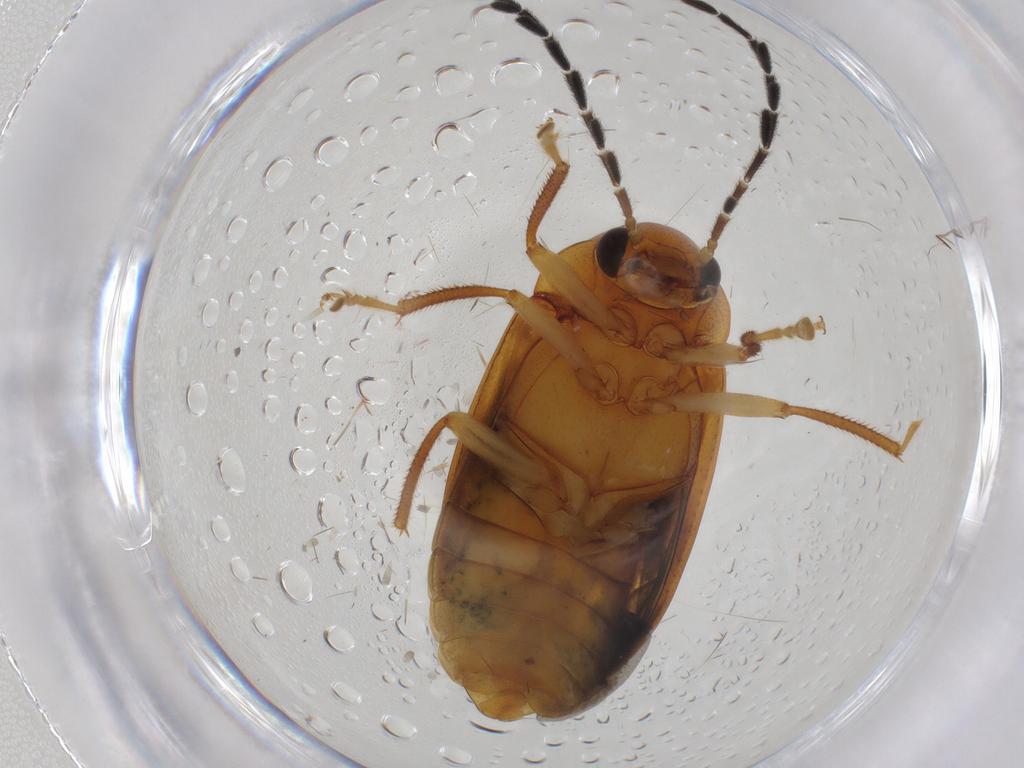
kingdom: Animalia
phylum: Arthropoda
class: Insecta
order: Coleoptera
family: Ptilodactylidae
